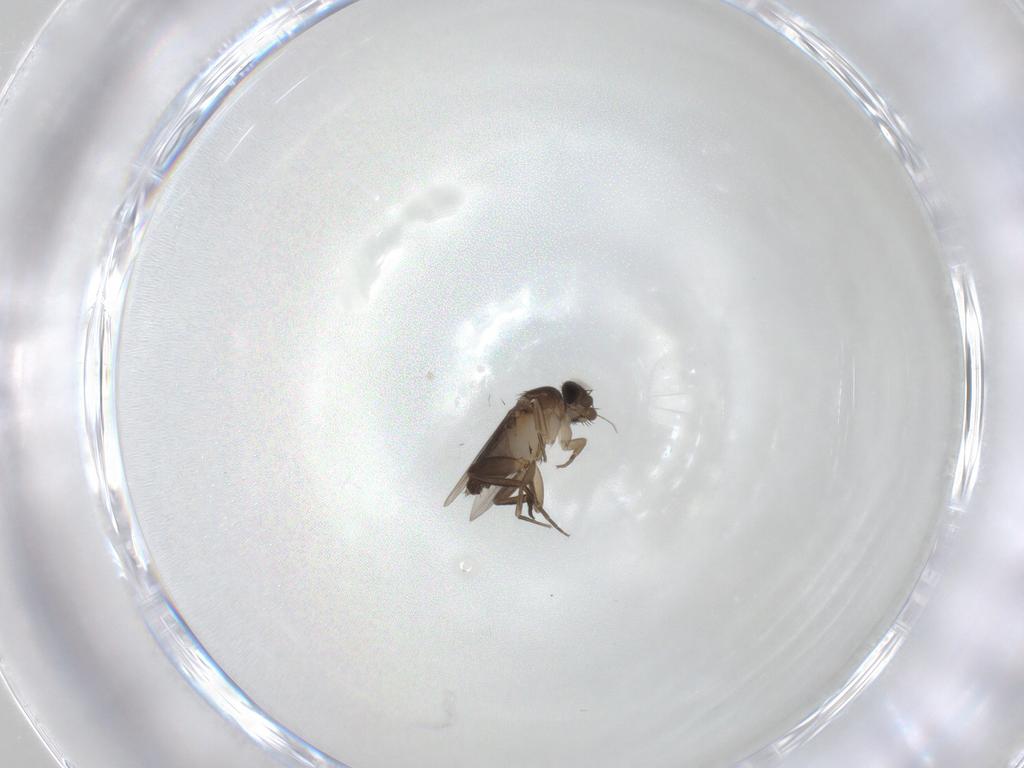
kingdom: Animalia
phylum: Arthropoda
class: Insecta
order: Diptera
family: Phoridae
